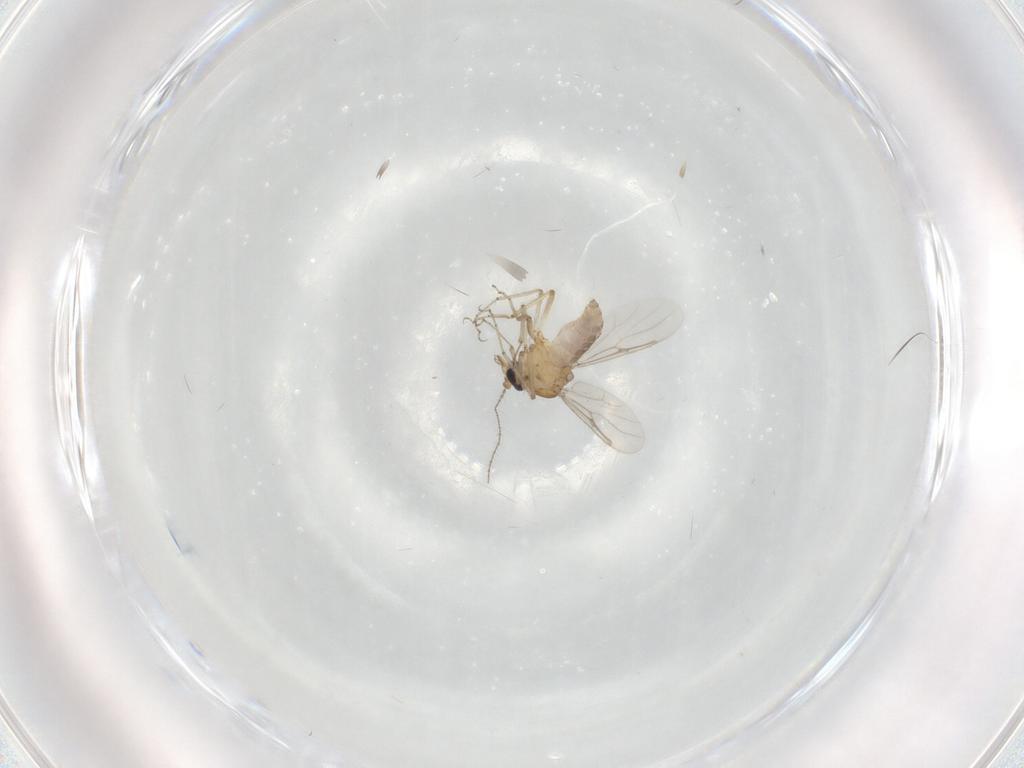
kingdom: Animalia
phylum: Arthropoda
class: Insecta
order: Diptera
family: Ceratopogonidae
